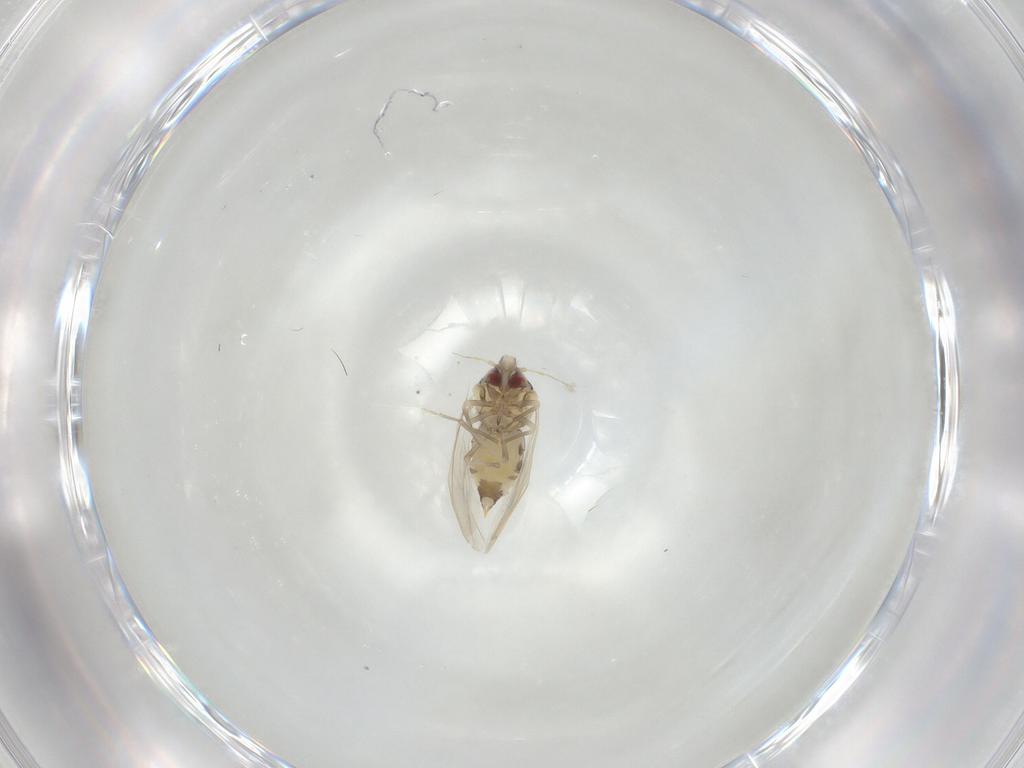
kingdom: Animalia
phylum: Arthropoda
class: Insecta
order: Hemiptera
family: Aleyrodidae
